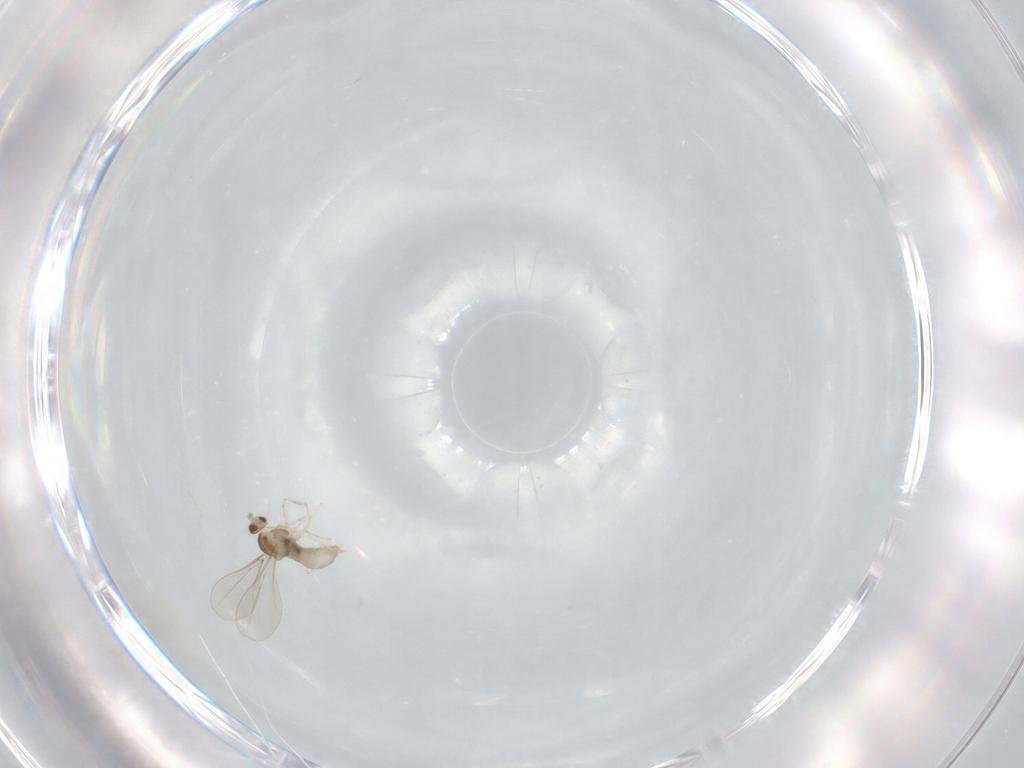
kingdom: Animalia
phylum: Arthropoda
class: Insecta
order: Diptera
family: Cecidomyiidae
